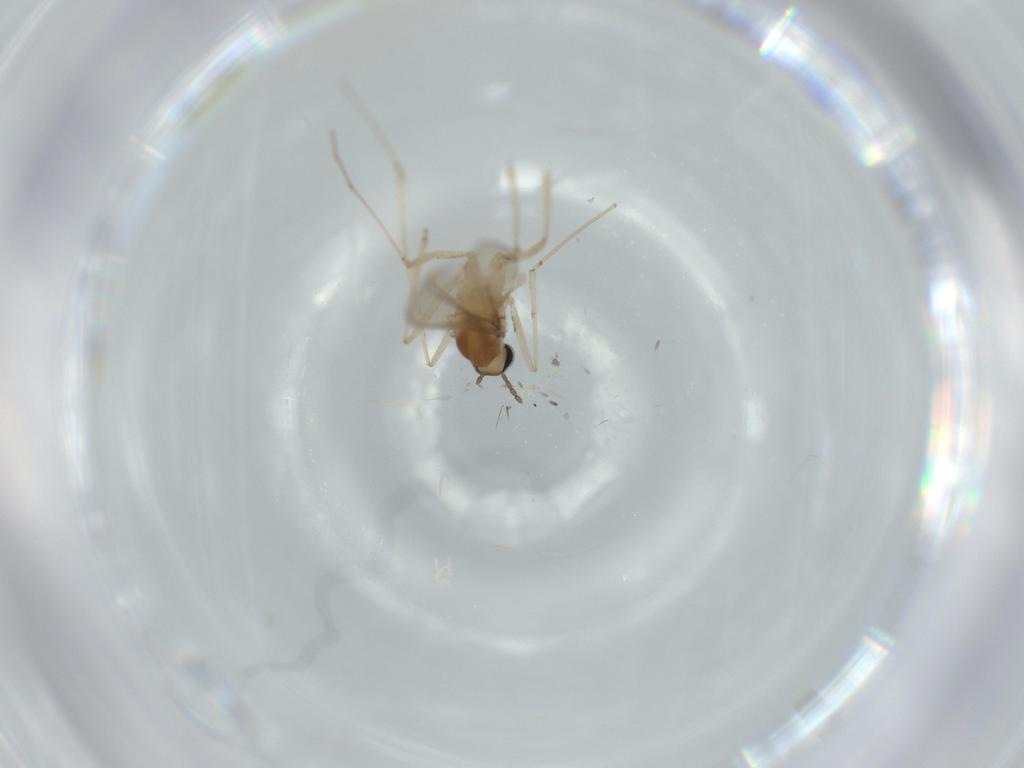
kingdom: Animalia
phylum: Arthropoda
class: Insecta
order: Diptera
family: Cecidomyiidae
